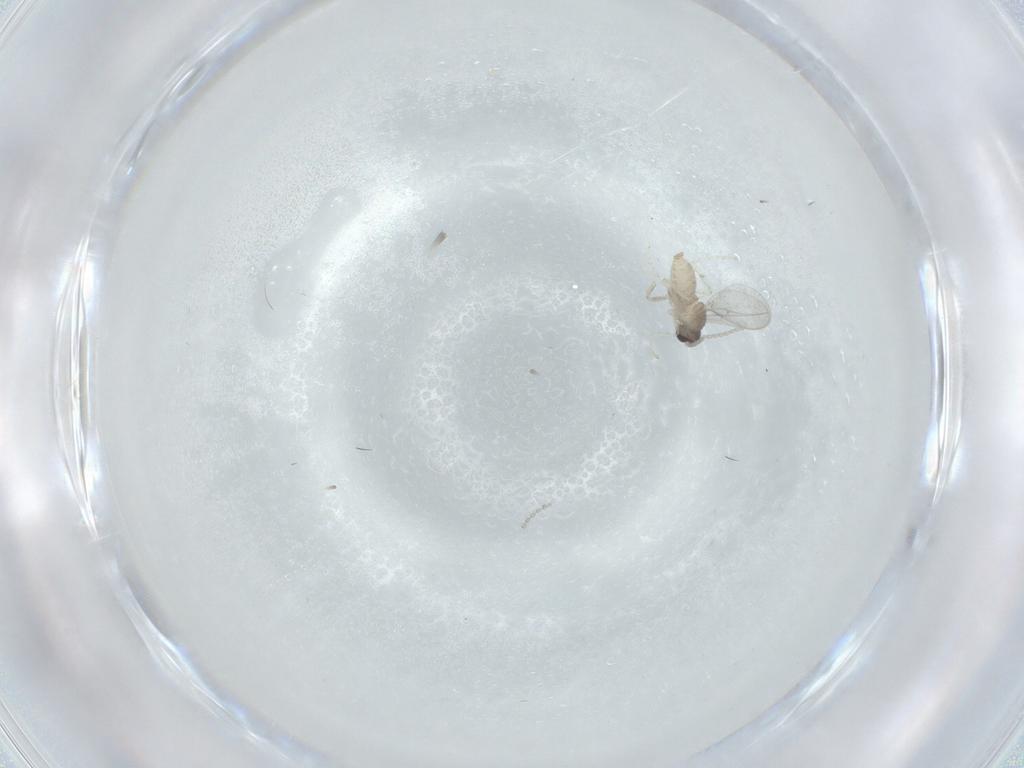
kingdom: Animalia
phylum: Arthropoda
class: Insecta
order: Diptera
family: Cecidomyiidae
